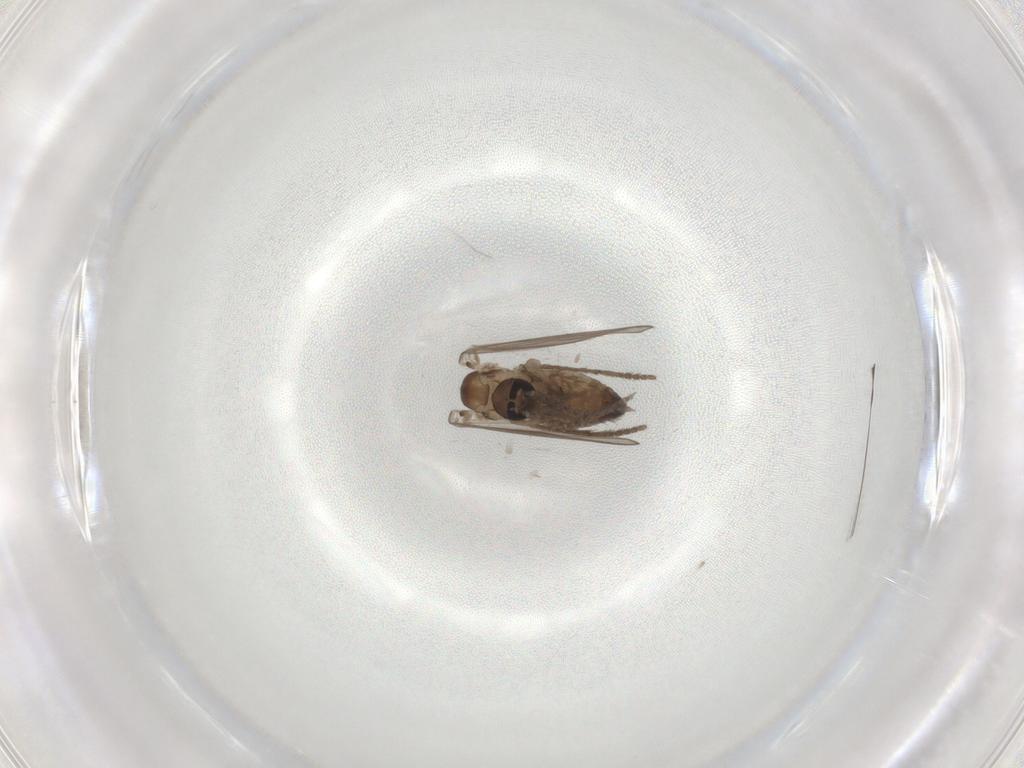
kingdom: Animalia
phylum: Arthropoda
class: Insecta
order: Diptera
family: Psychodidae
